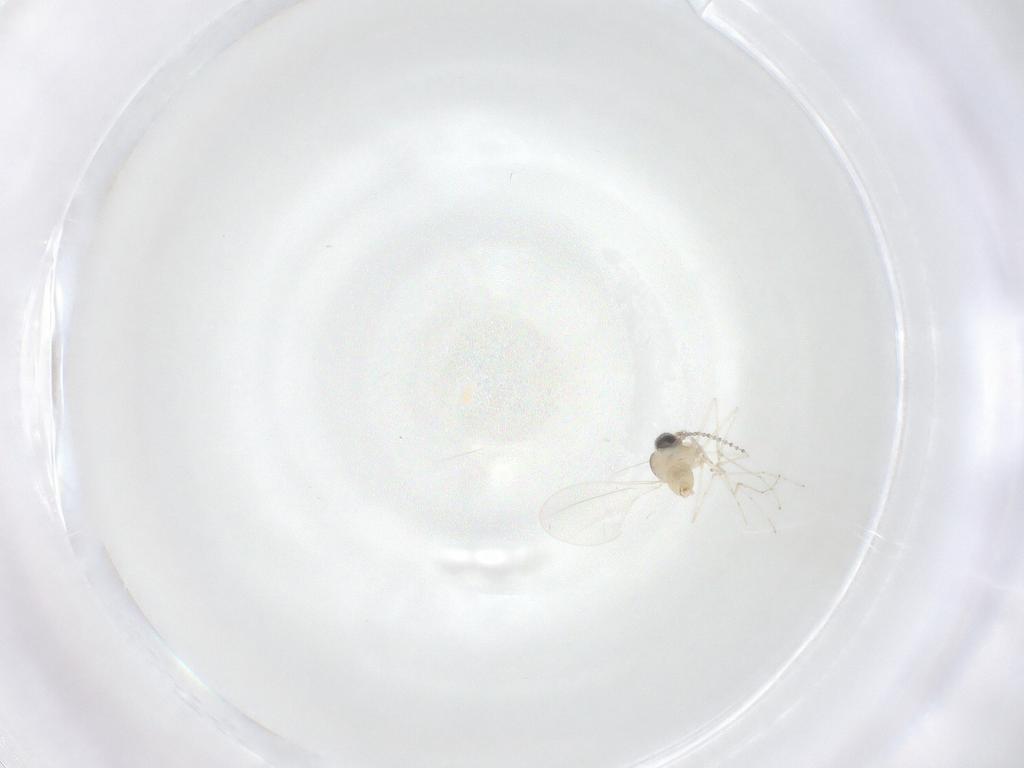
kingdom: Animalia
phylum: Arthropoda
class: Insecta
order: Diptera
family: Cecidomyiidae
